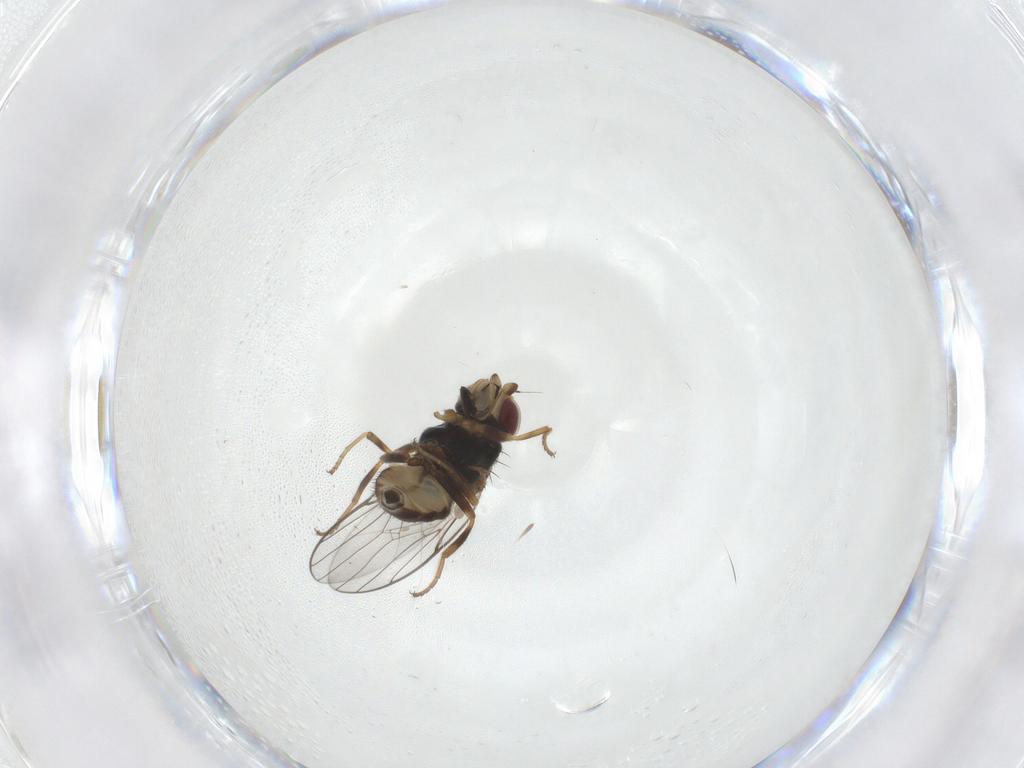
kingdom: Animalia
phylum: Arthropoda
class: Insecta
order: Diptera
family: Chloropidae
